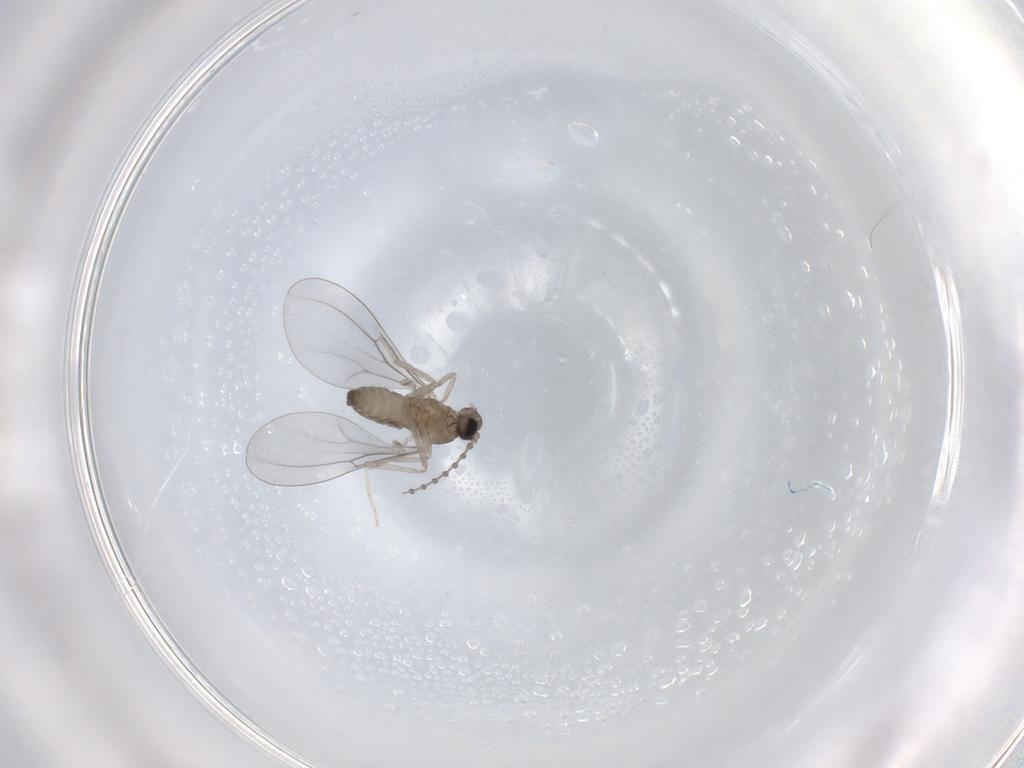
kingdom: Animalia
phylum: Arthropoda
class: Insecta
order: Diptera
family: Cecidomyiidae
